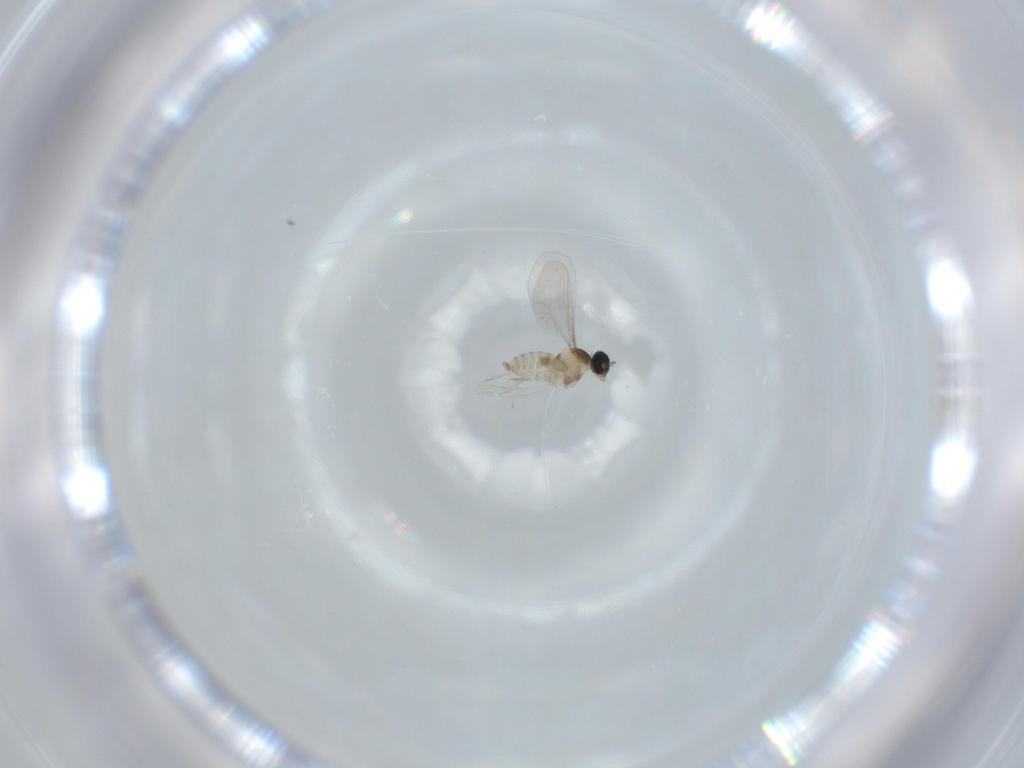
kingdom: Animalia
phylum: Arthropoda
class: Insecta
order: Diptera
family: Cecidomyiidae
